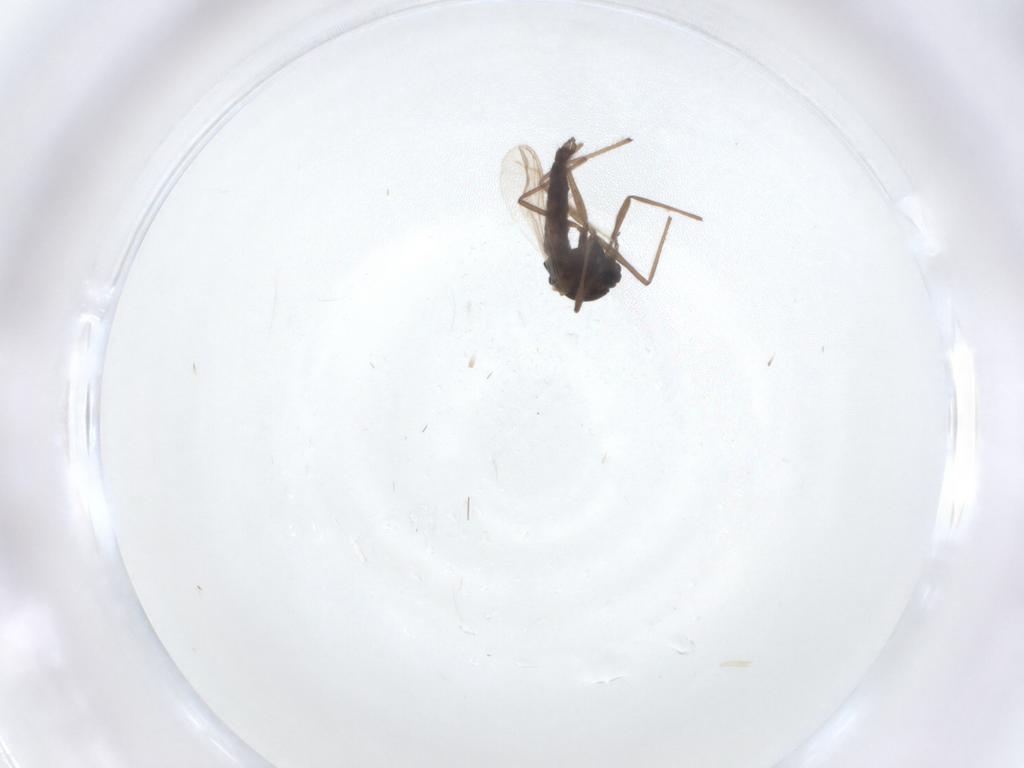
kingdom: Animalia
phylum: Arthropoda
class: Insecta
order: Diptera
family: Chironomidae
